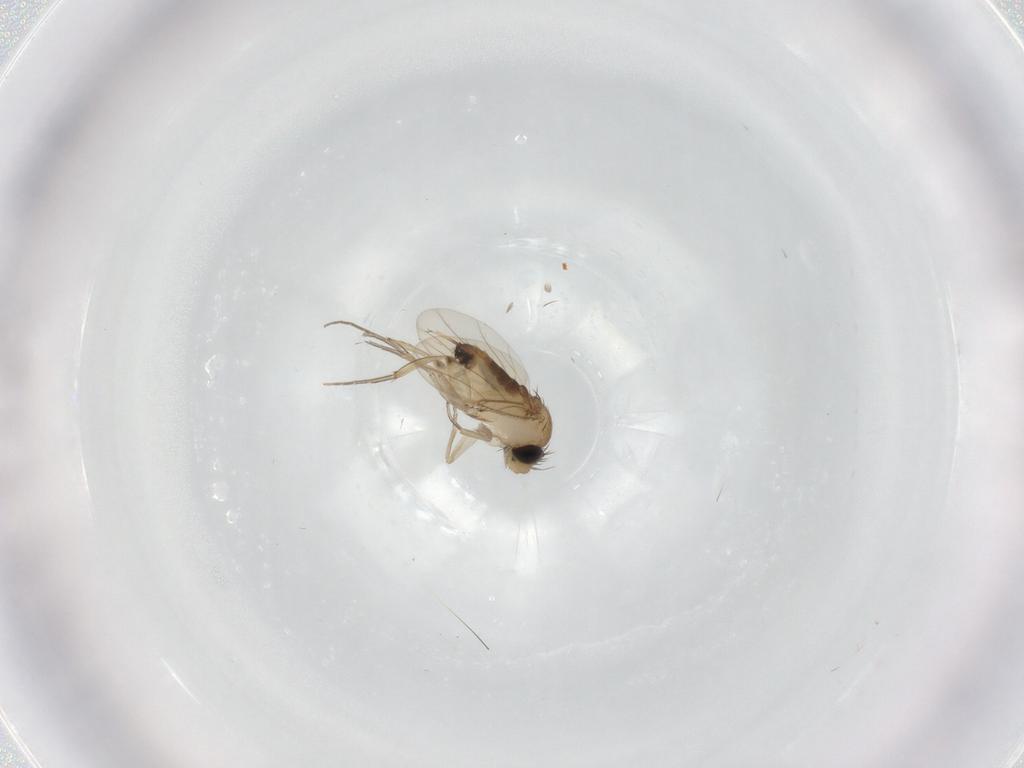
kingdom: Animalia
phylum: Arthropoda
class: Insecta
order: Diptera
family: Phoridae
